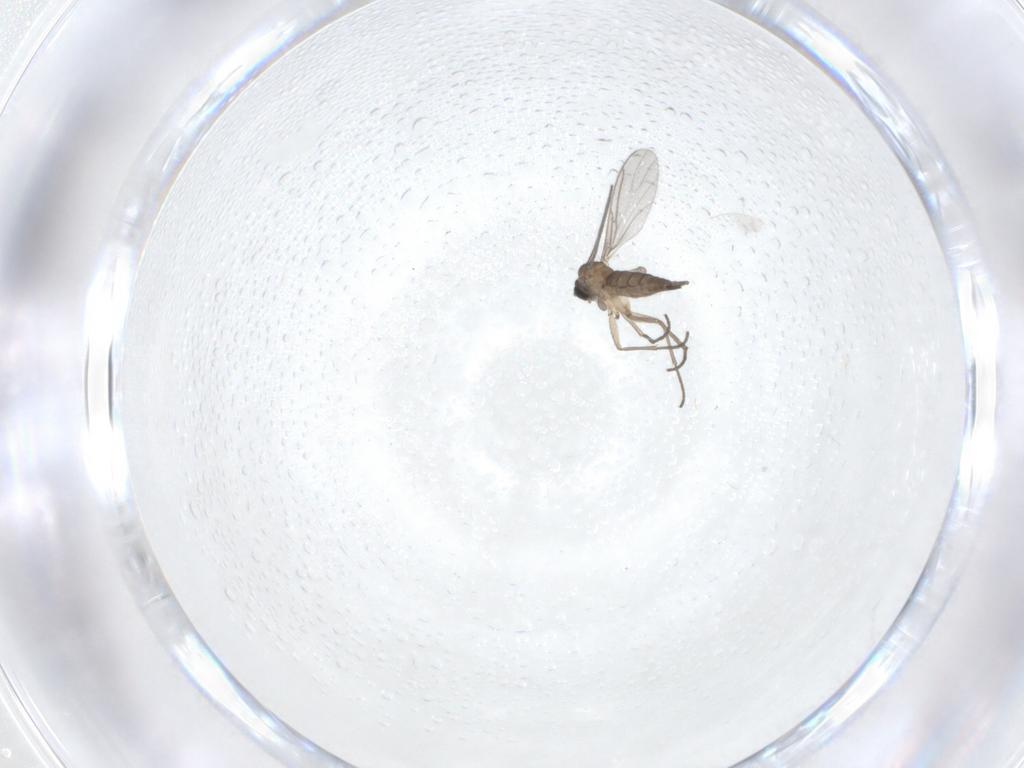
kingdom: Animalia
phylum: Arthropoda
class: Insecta
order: Diptera
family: Sciaridae
